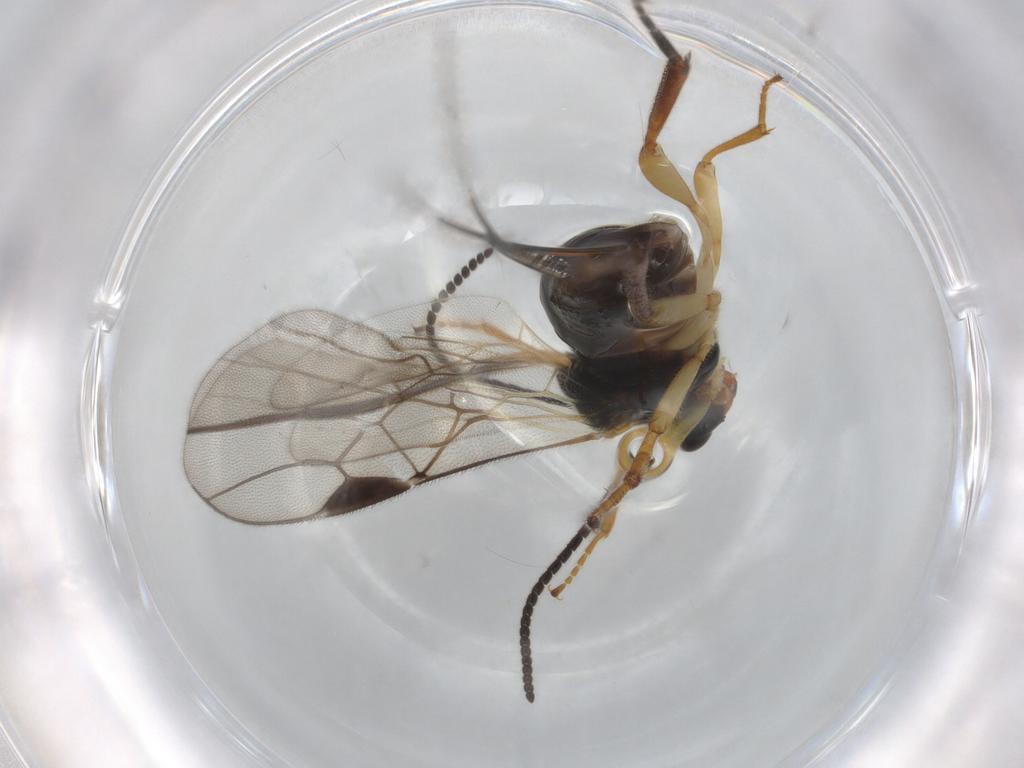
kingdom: Animalia
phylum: Arthropoda
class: Insecta
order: Hymenoptera
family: Braconidae
